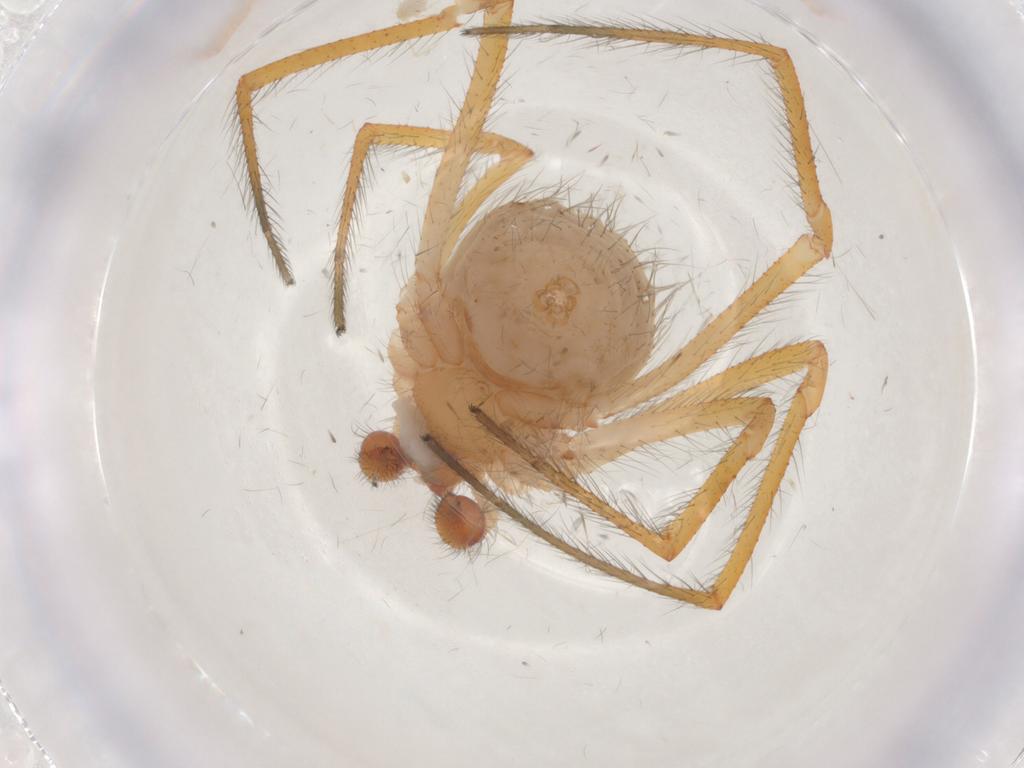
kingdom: Animalia
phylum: Arthropoda
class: Arachnida
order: Araneae
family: Theridiidae
